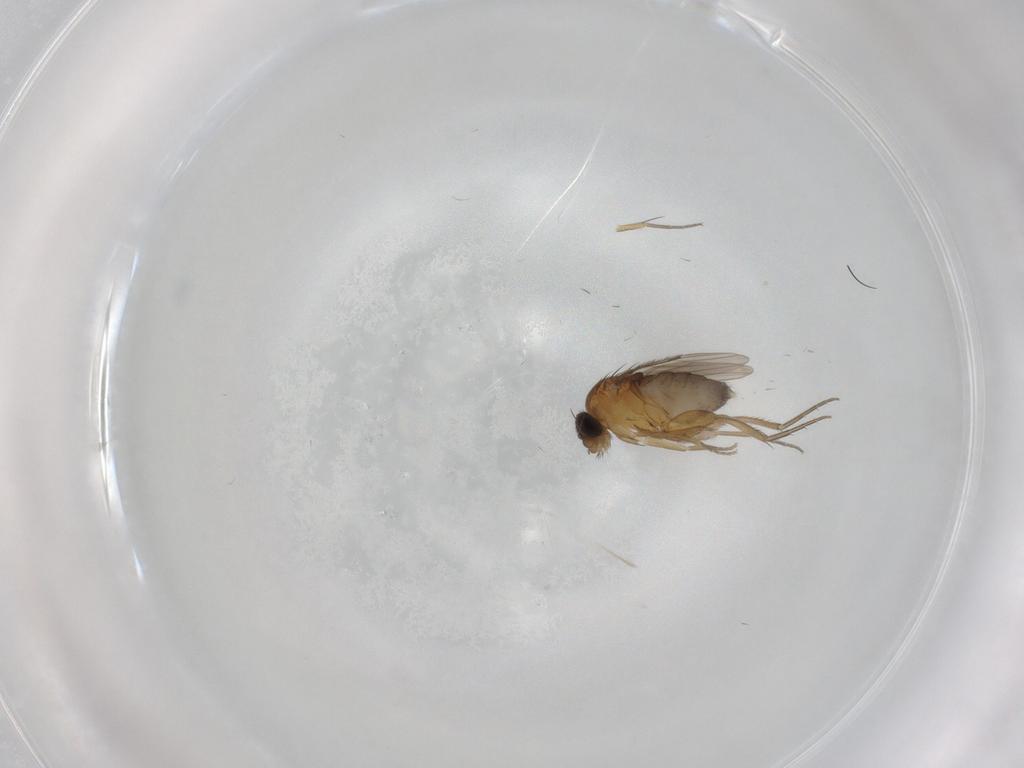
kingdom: Animalia
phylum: Arthropoda
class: Insecta
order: Diptera
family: Phoridae
